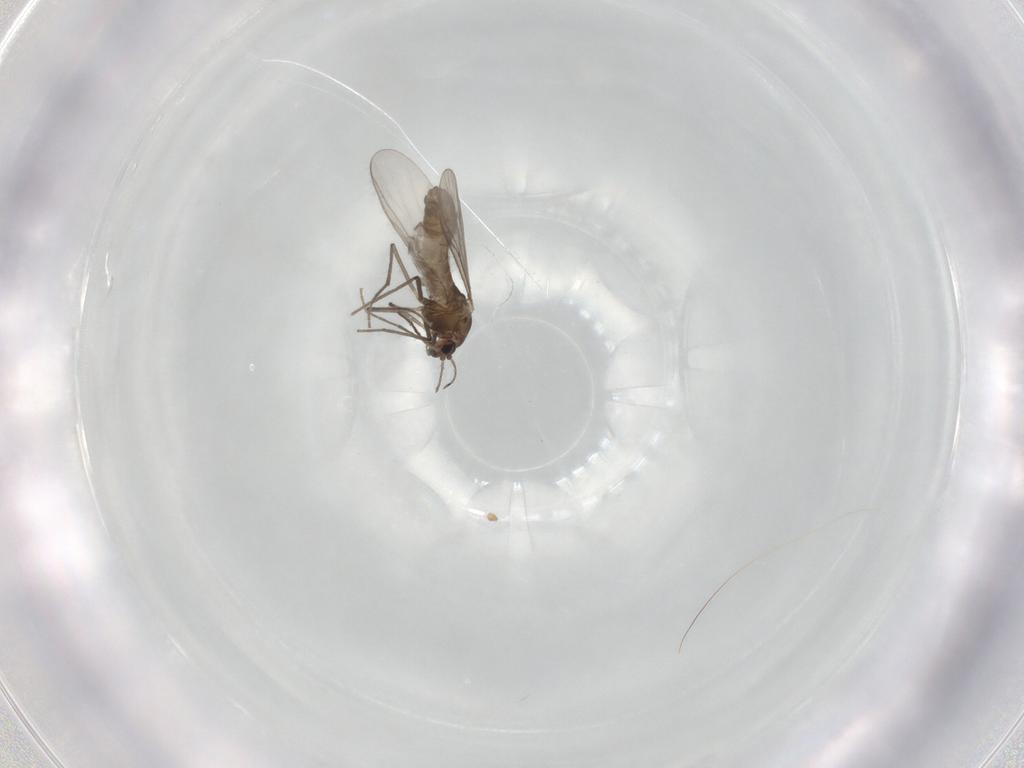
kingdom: Animalia
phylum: Arthropoda
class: Insecta
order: Diptera
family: Chironomidae
